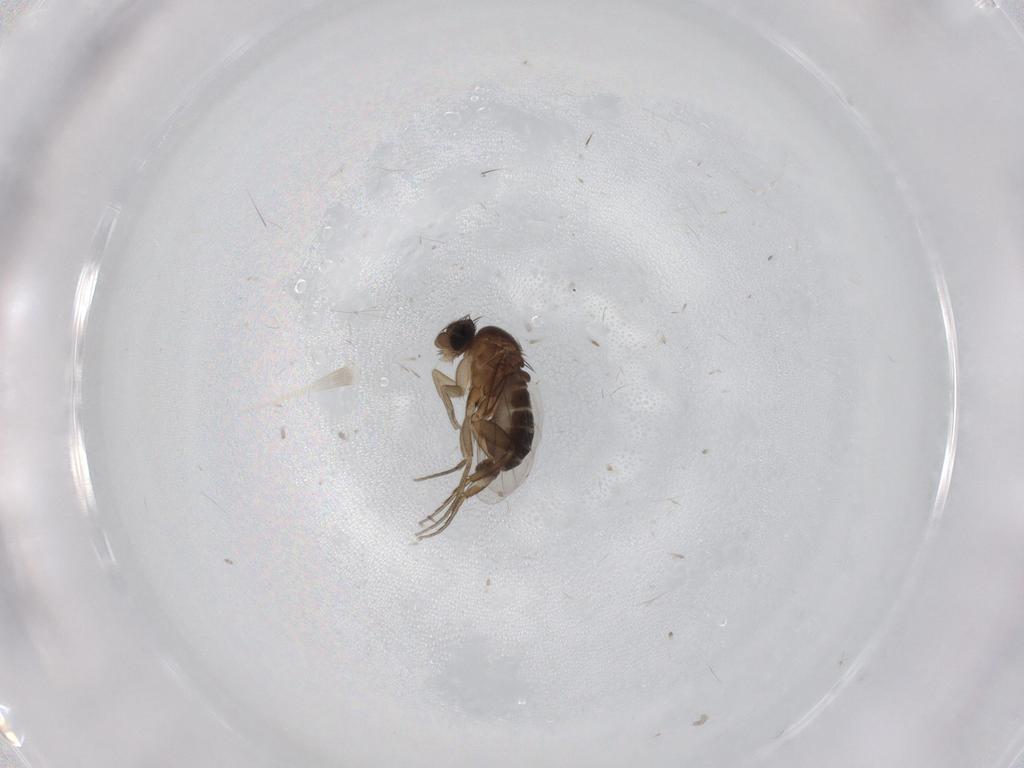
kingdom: Animalia
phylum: Arthropoda
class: Insecta
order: Diptera
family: Phoridae
